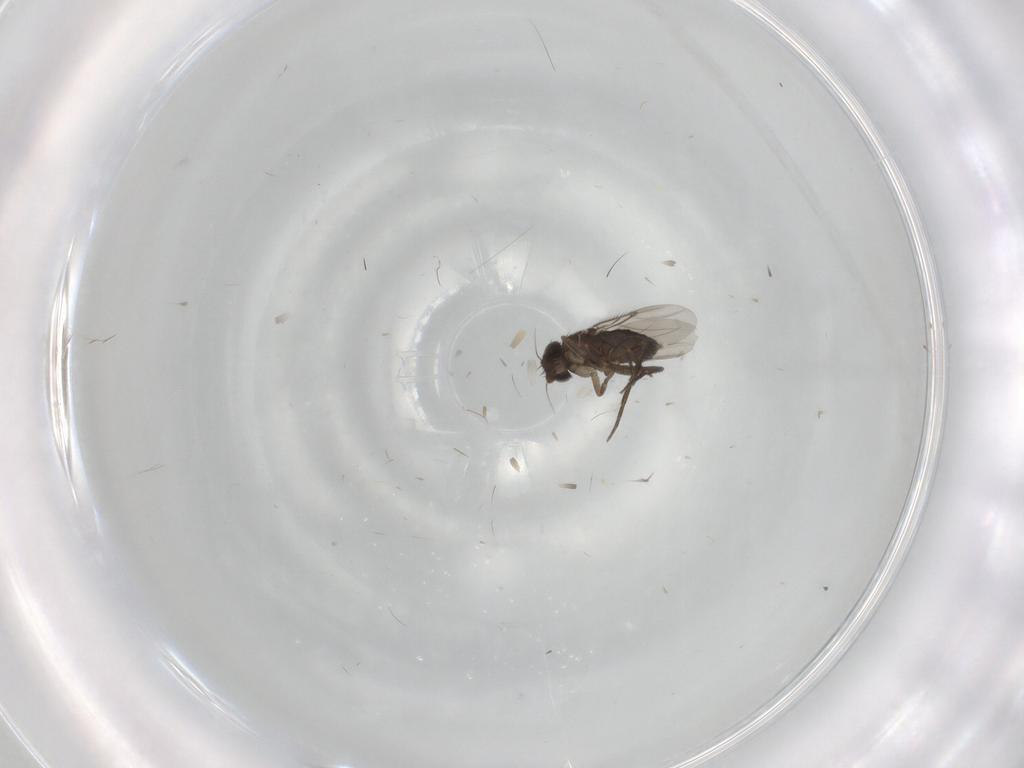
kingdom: Animalia
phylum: Arthropoda
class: Insecta
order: Diptera
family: Phoridae
